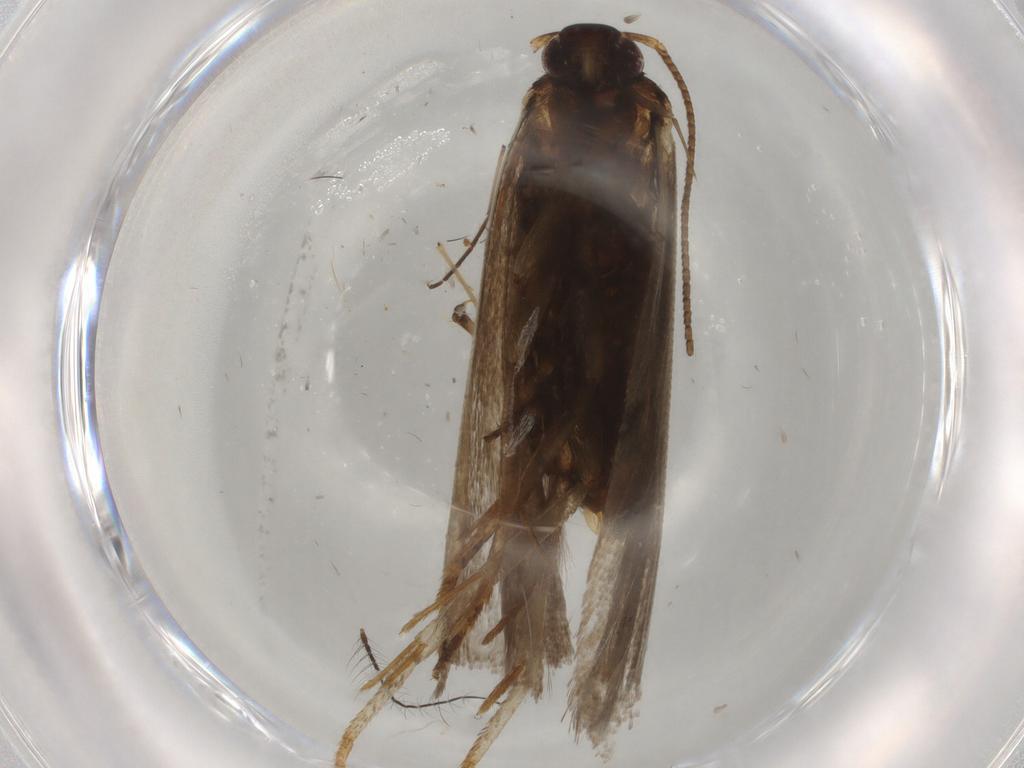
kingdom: Animalia
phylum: Arthropoda
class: Insecta
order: Lepidoptera
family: Gelechiidae
